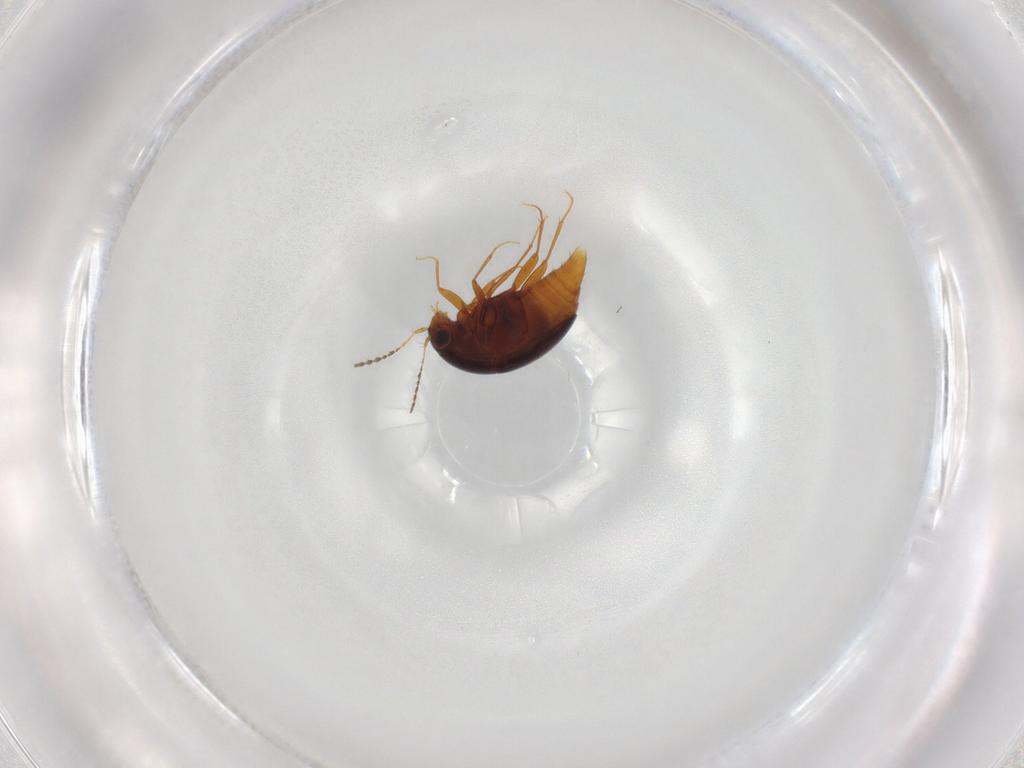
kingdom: Animalia
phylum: Arthropoda
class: Insecta
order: Coleoptera
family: Staphylinidae
